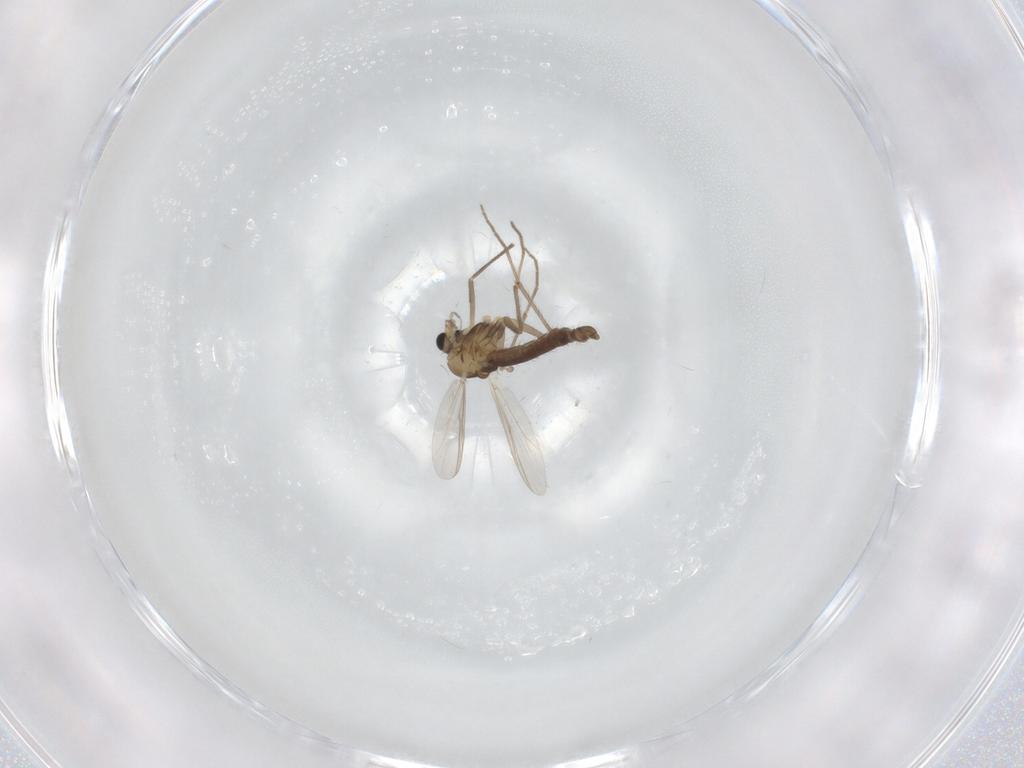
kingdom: Animalia
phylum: Arthropoda
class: Insecta
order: Diptera
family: Chironomidae
